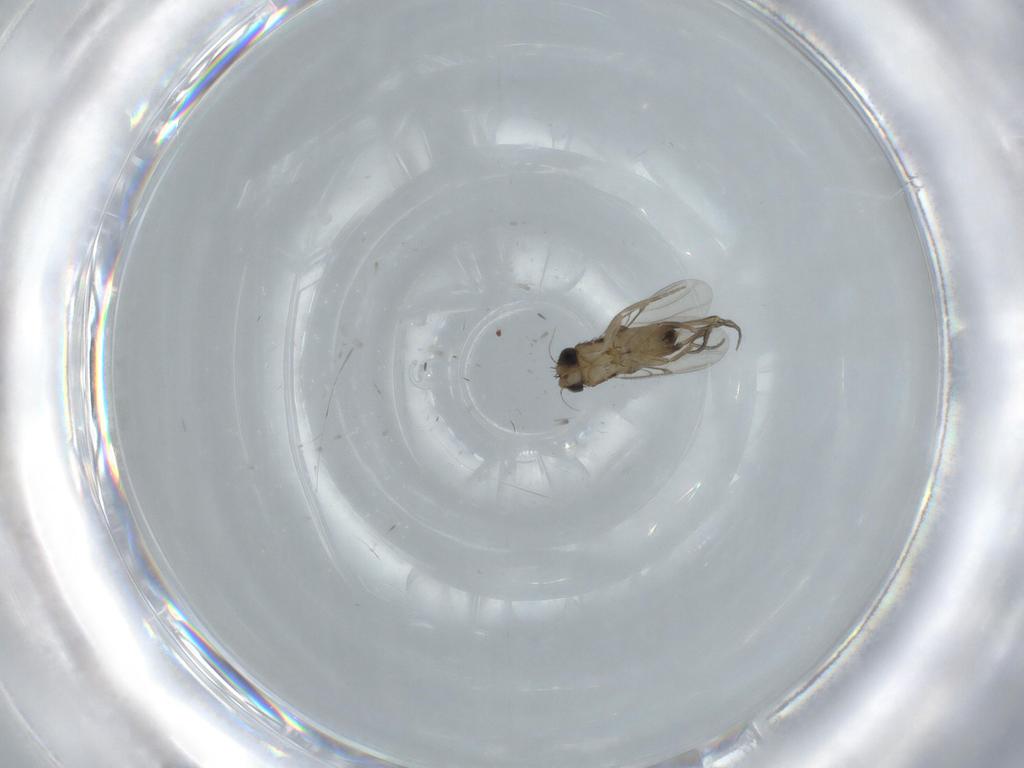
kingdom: Animalia
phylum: Arthropoda
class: Insecta
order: Diptera
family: Phoridae
